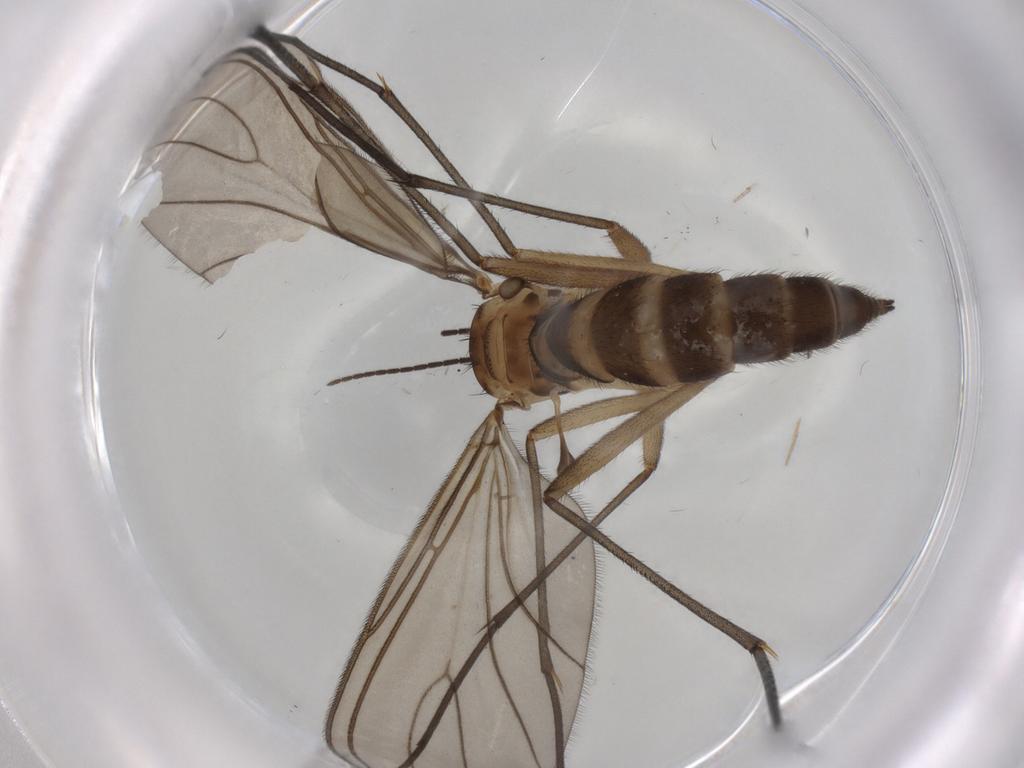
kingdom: Animalia
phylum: Arthropoda
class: Insecta
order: Diptera
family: Sciaridae
